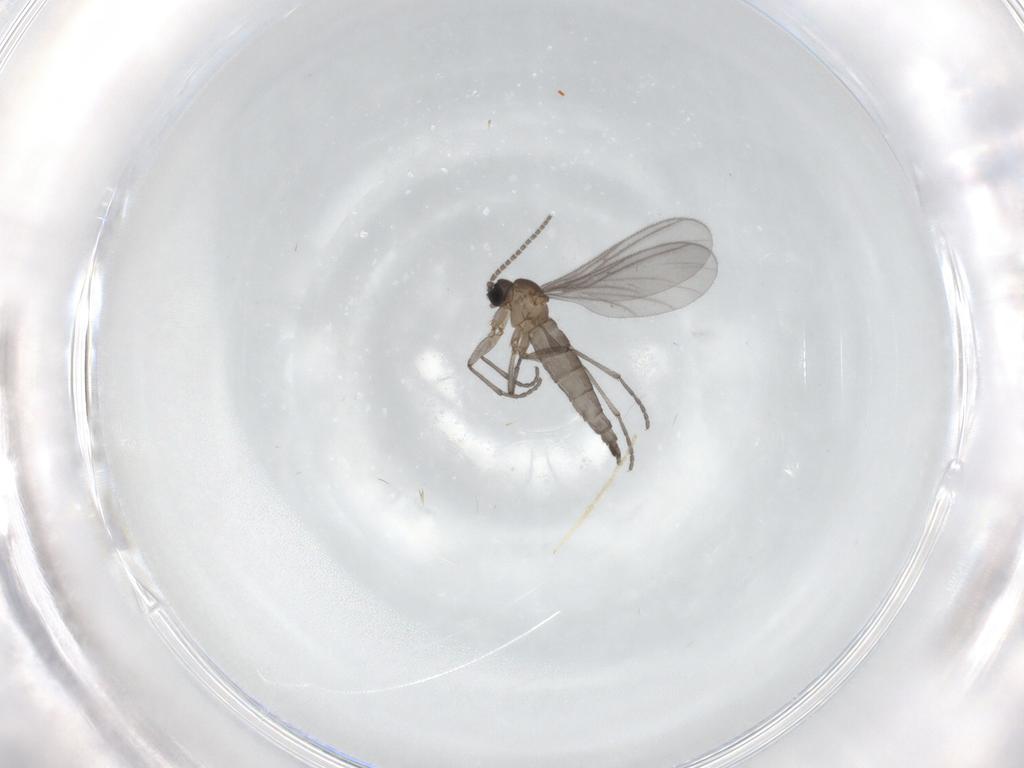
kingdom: Animalia
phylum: Arthropoda
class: Insecta
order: Diptera
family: Sciaridae
